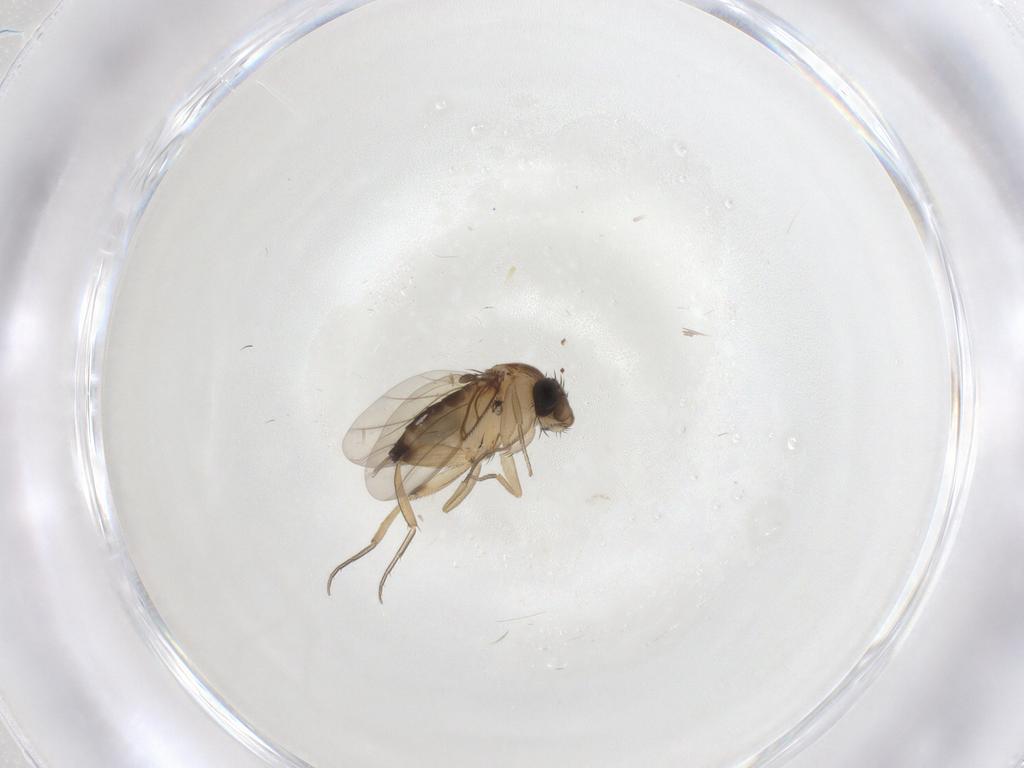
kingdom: Animalia
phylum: Arthropoda
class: Insecta
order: Diptera
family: Phoridae
